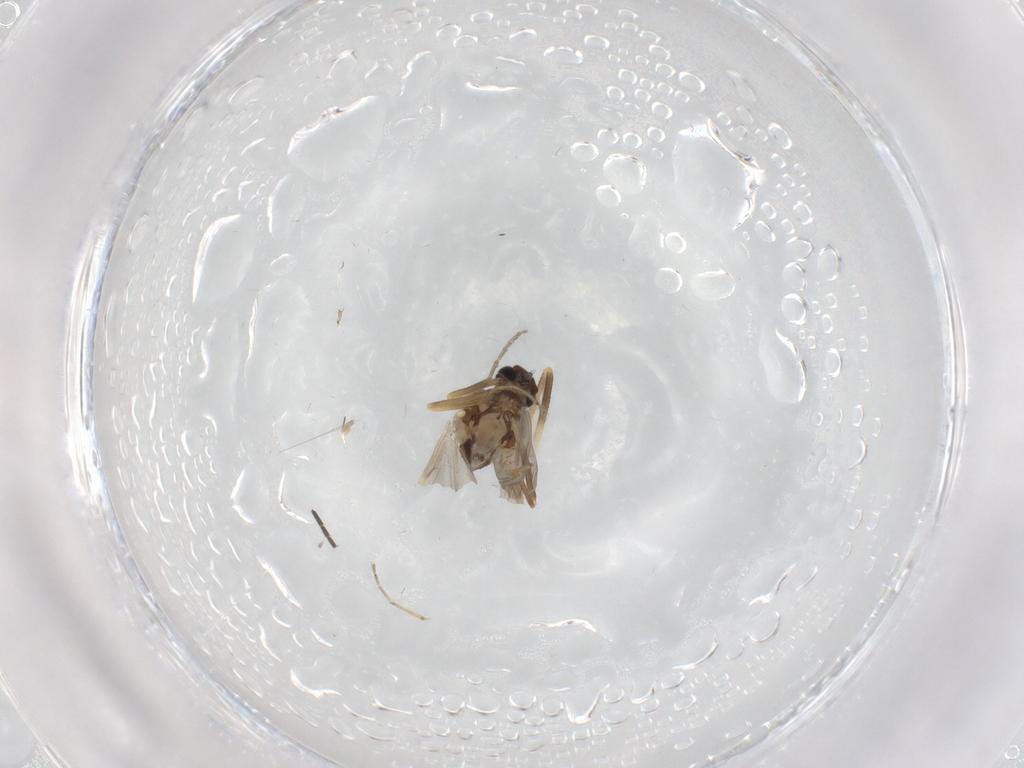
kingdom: Animalia
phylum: Arthropoda
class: Insecta
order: Diptera
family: Ceratopogonidae
